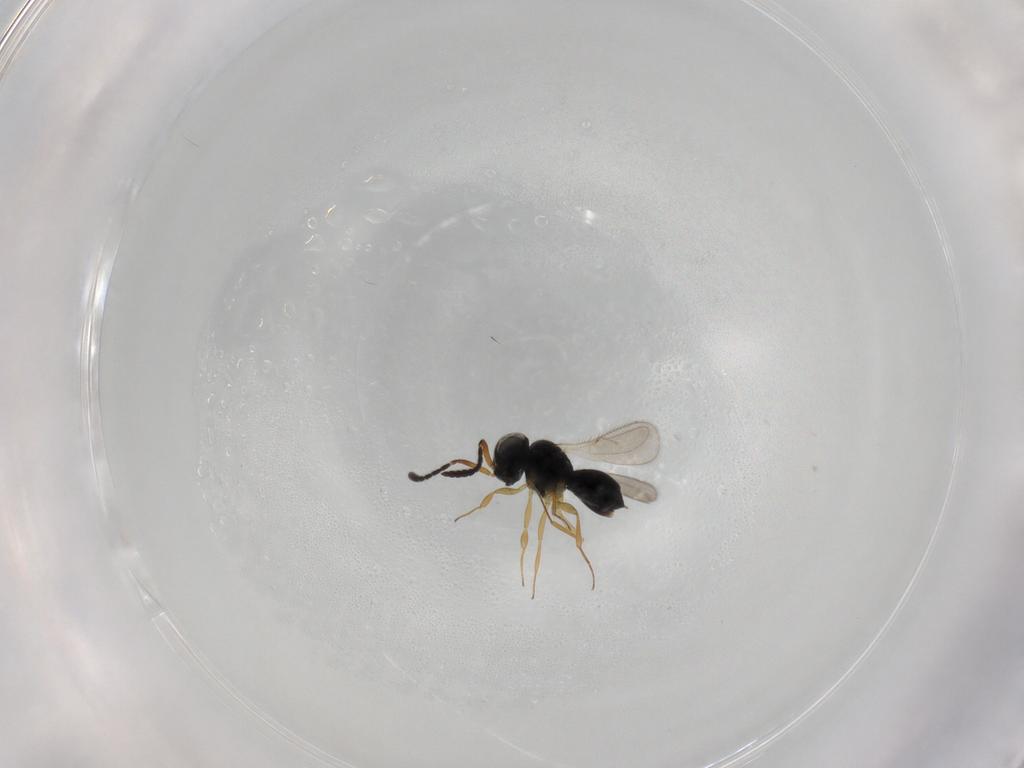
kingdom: Animalia
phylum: Arthropoda
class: Insecta
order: Hymenoptera
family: Scelionidae
